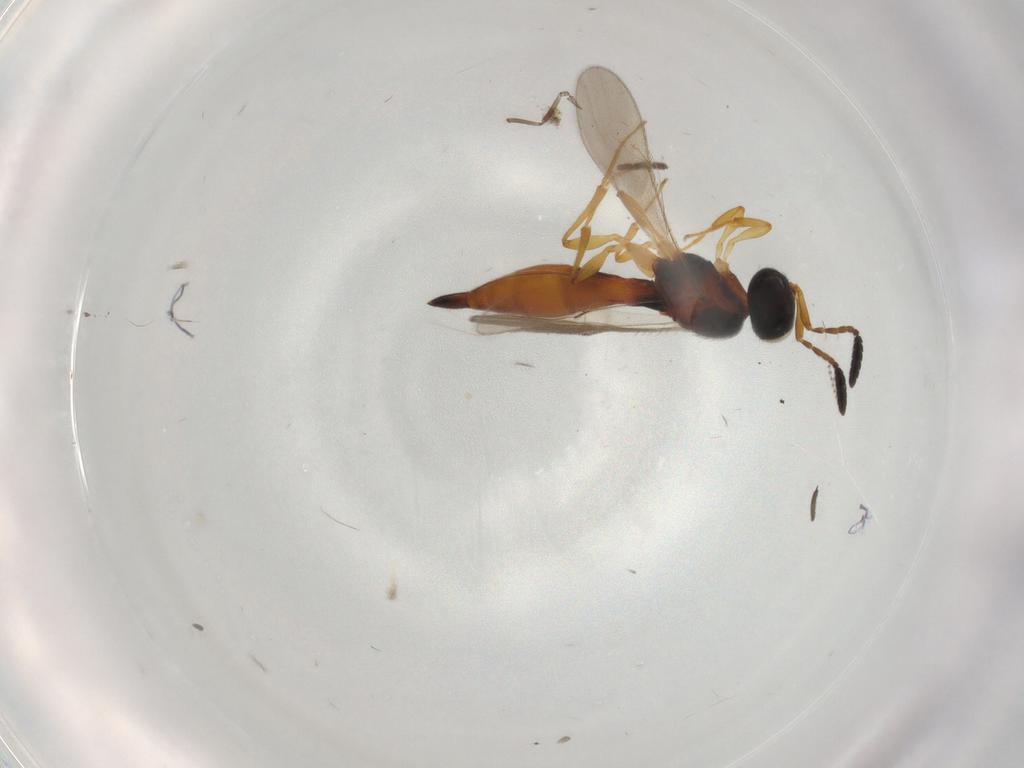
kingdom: Animalia
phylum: Arthropoda
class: Insecta
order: Hymenoptera
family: Scelionidae
